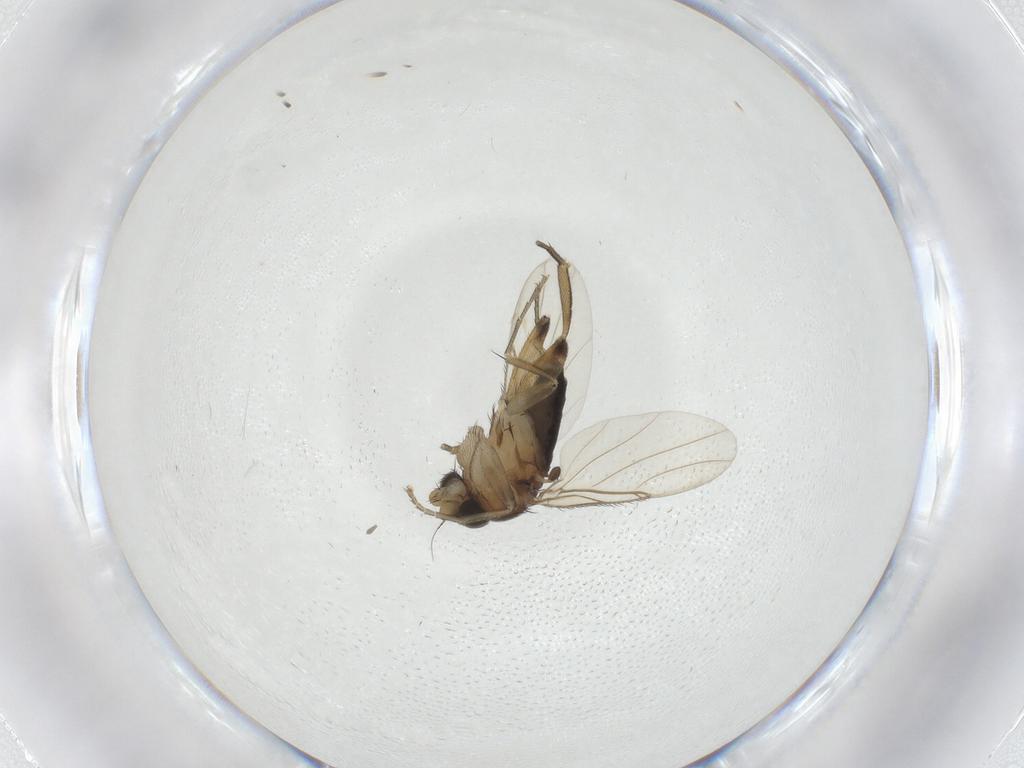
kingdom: Animalia
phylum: Arthropoda
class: Insecta
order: Diptera
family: Phoridae
